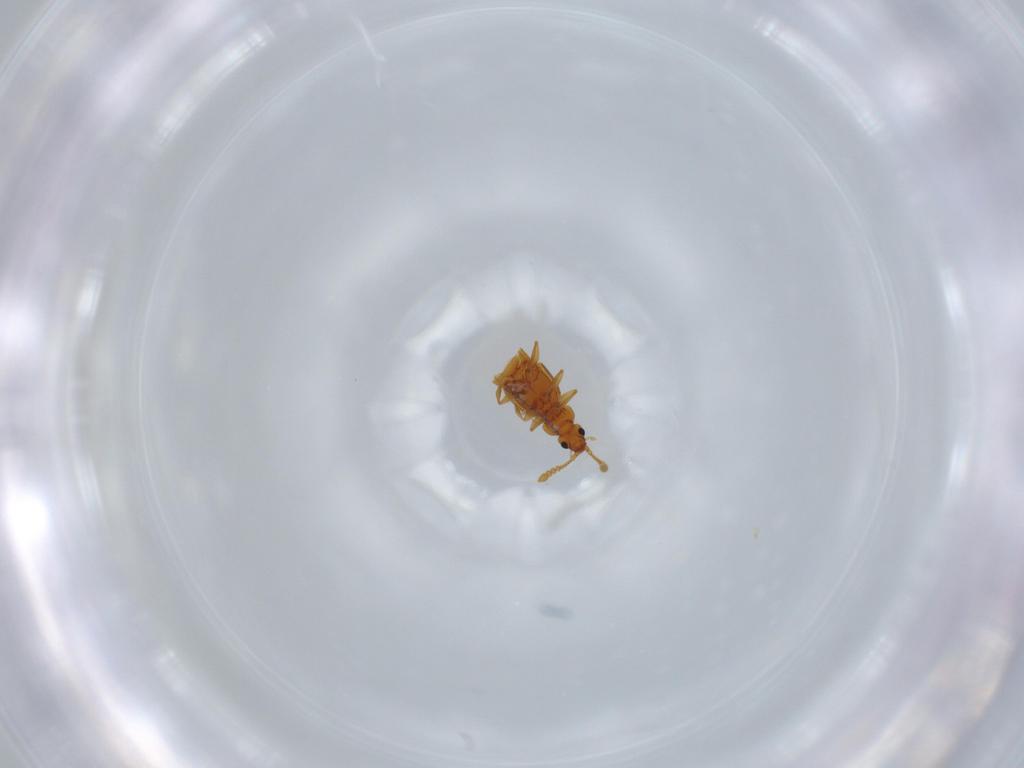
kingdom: Animalia
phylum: Arthropoda
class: Insecta
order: Coleoptera
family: Staphylinidae
